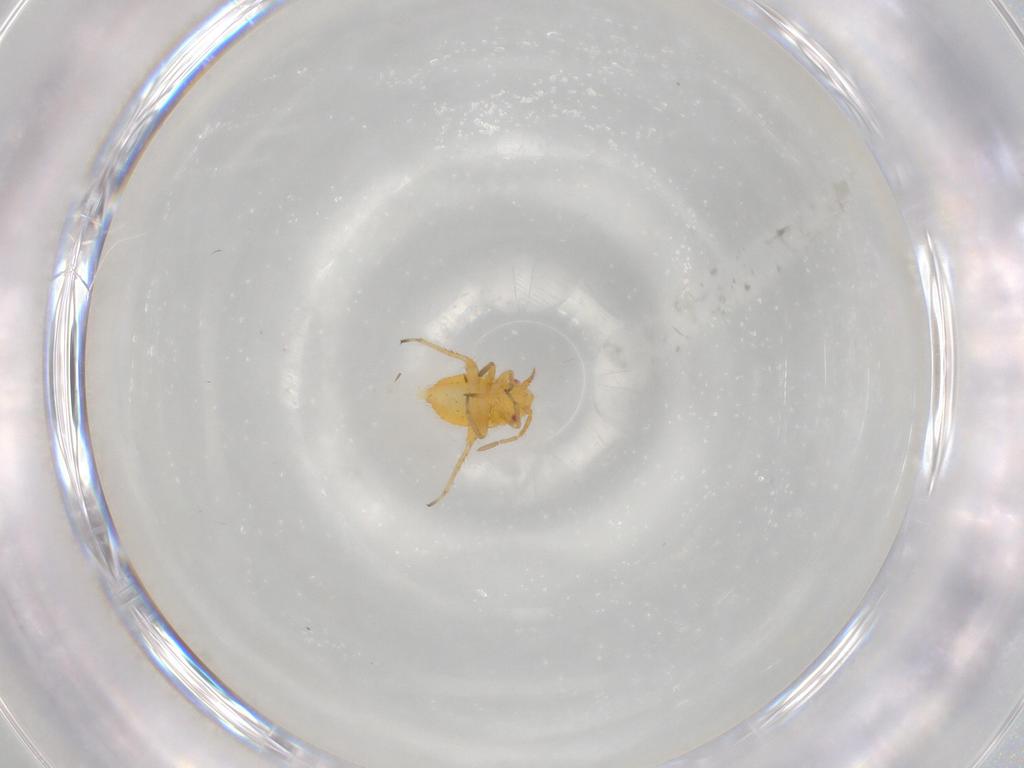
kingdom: Animalia
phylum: Arthropoda
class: Insecta
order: Hemiptera
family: Miridae
